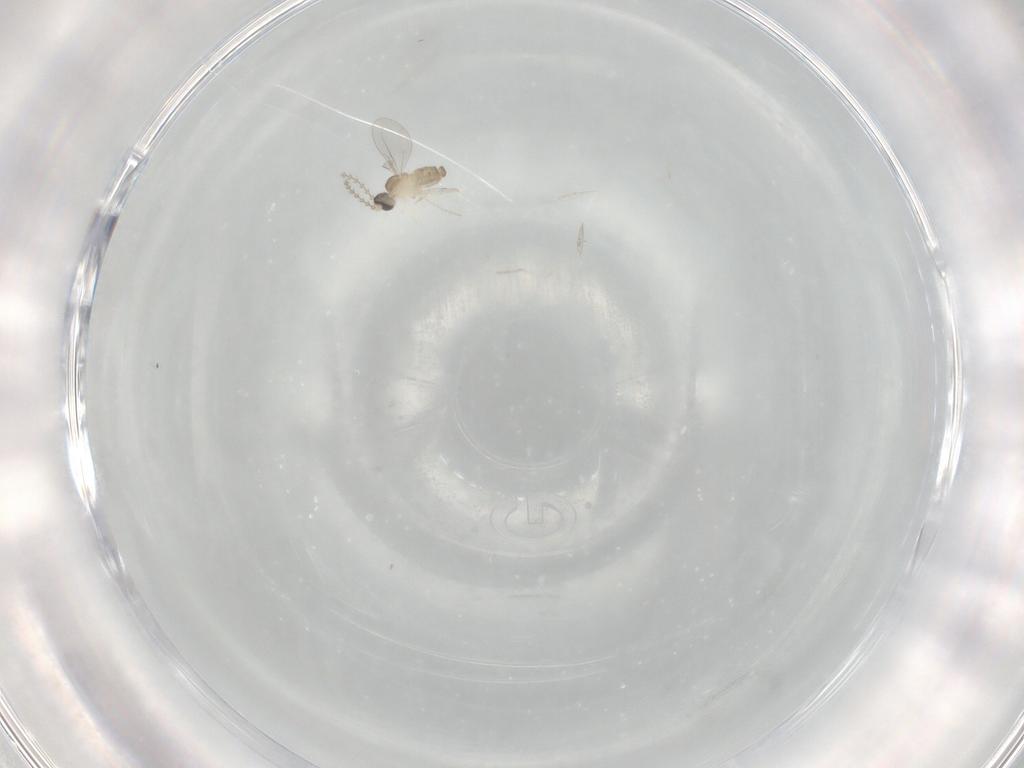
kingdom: Animalia
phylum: Arthropoda
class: Insecta
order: Diptera
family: Cecidomyiidae
